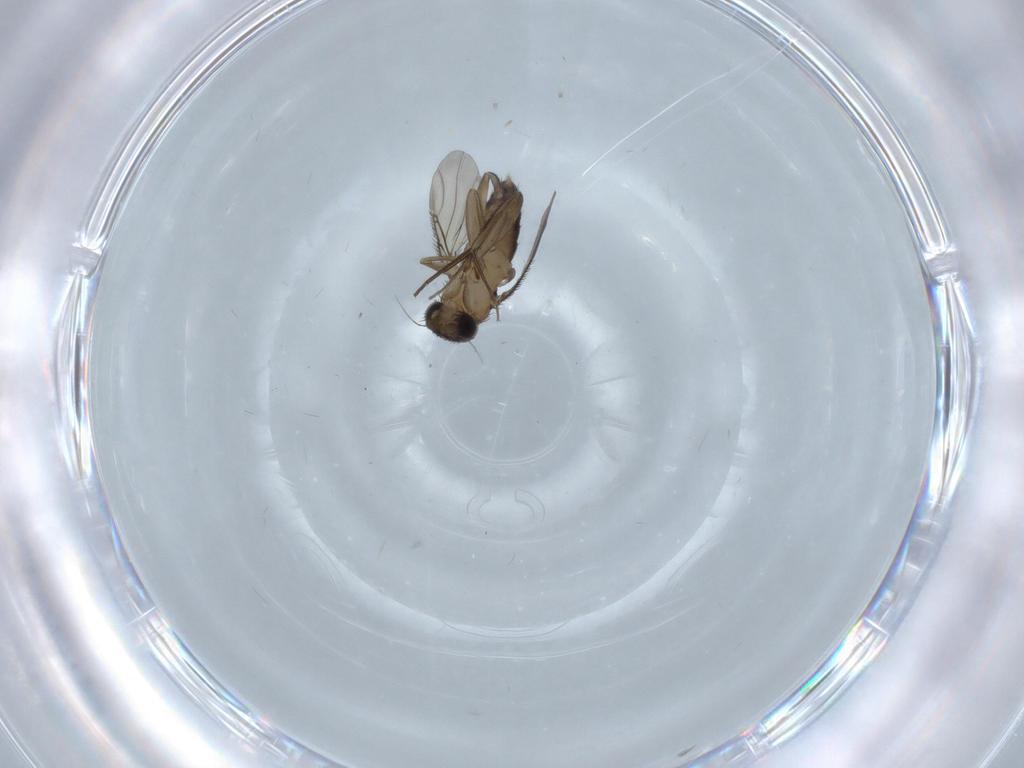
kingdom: Animalia
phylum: Arthropoda
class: Insecta
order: Diptera
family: Phoridae
